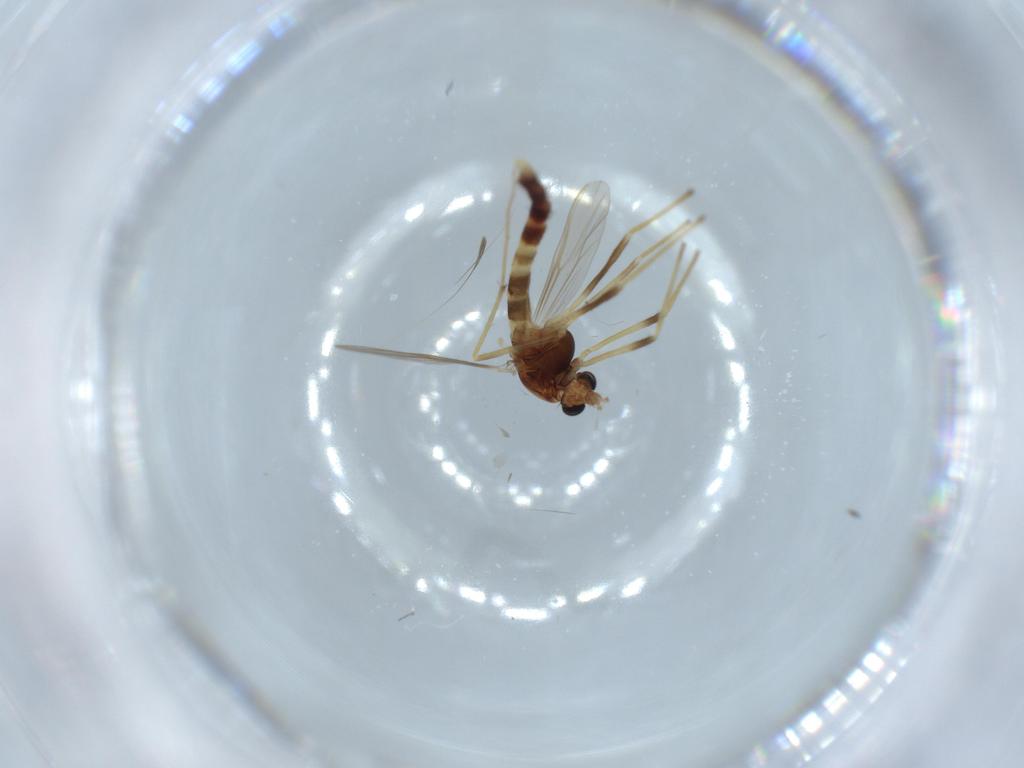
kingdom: Animalia
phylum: Arthropoda
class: Insecta
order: Diptera
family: Chironomidae
